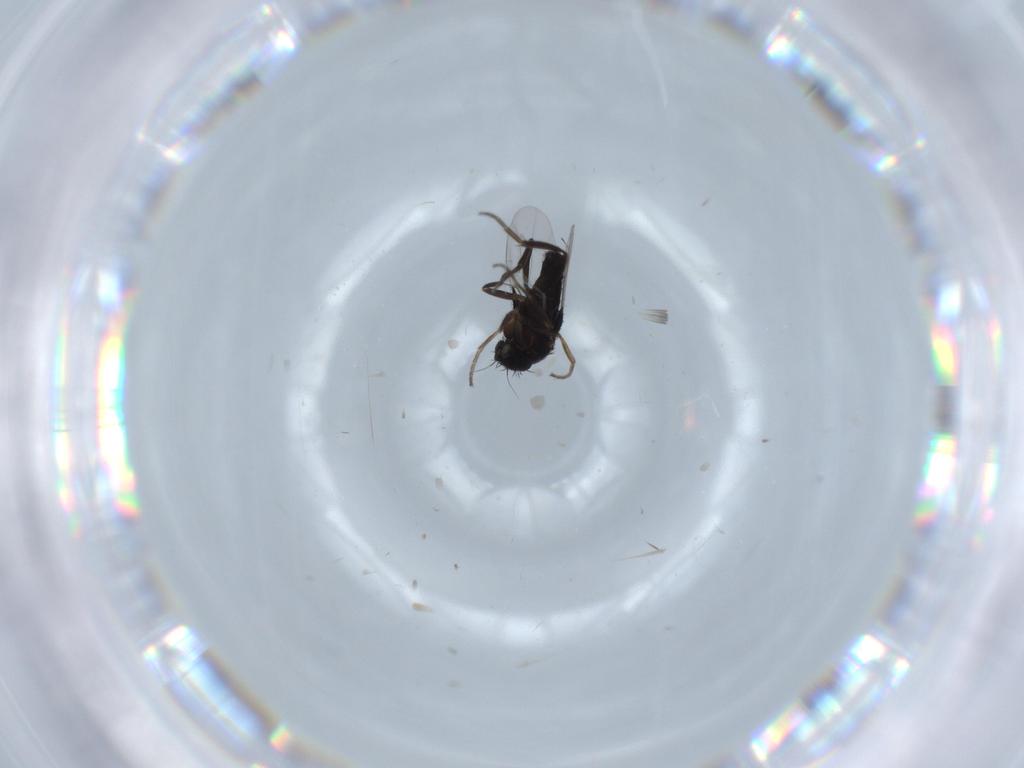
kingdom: Animalia
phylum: Arthropoda
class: Insecta
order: Diptera
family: Phoridae
